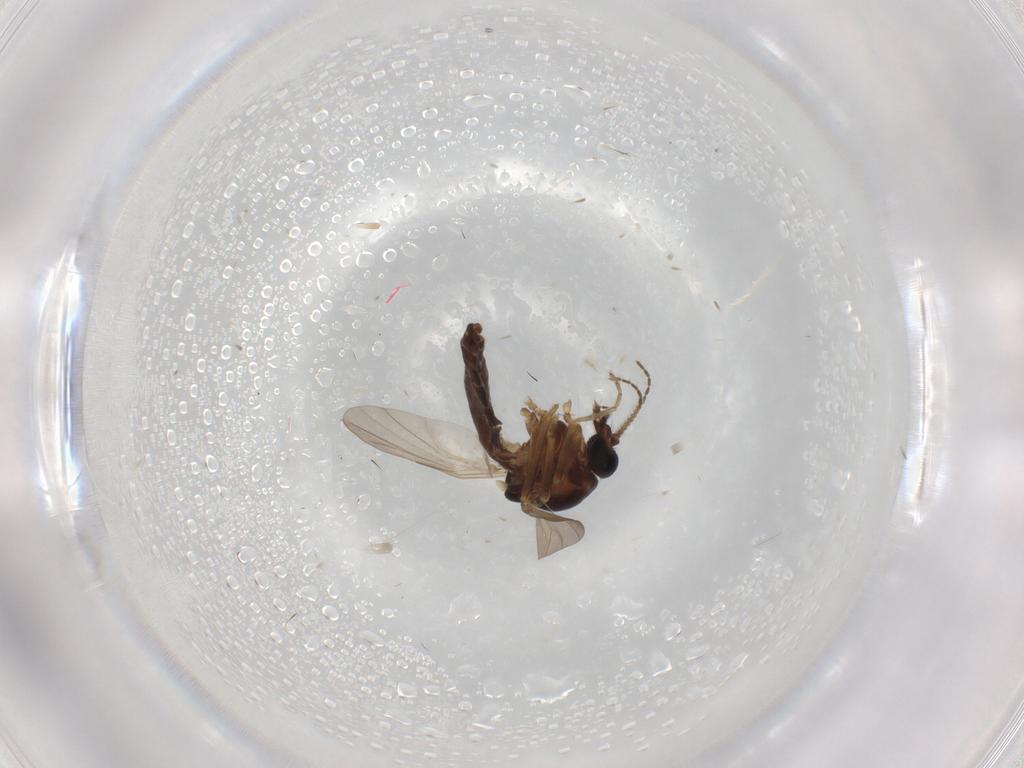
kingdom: Animalia
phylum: Arthropoda
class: Insecta
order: Diptera
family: Ceratopogonidae
